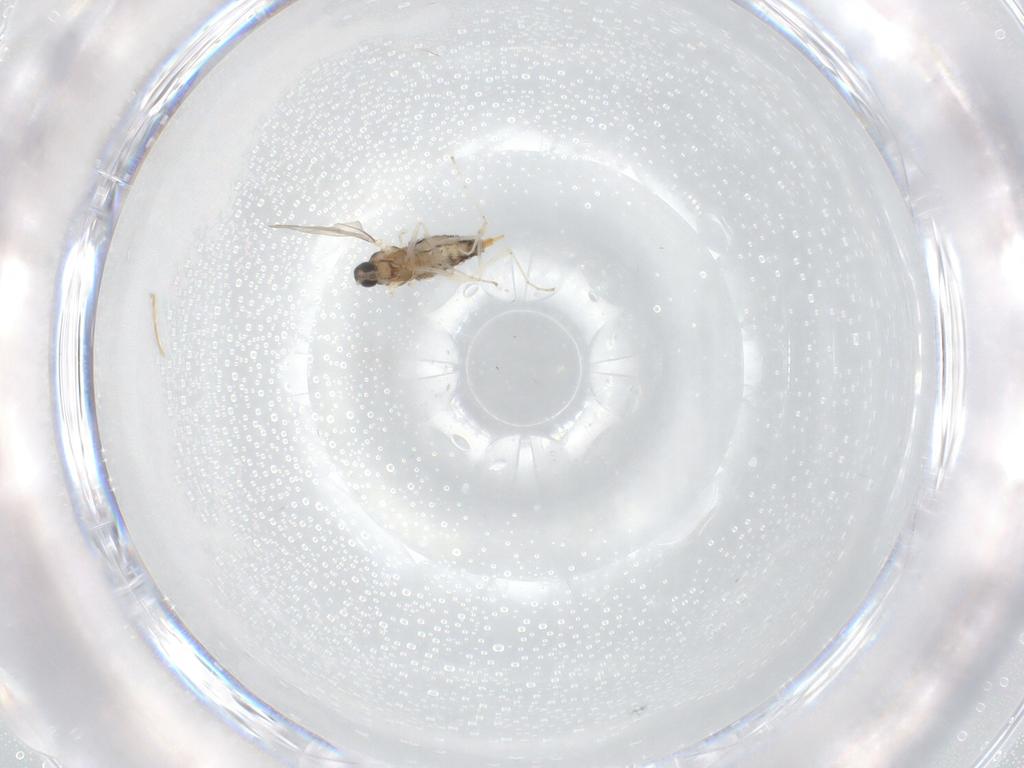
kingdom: Animalia
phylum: Arthropoda
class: Insecta
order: Diptera
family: Cecidomyiidae
